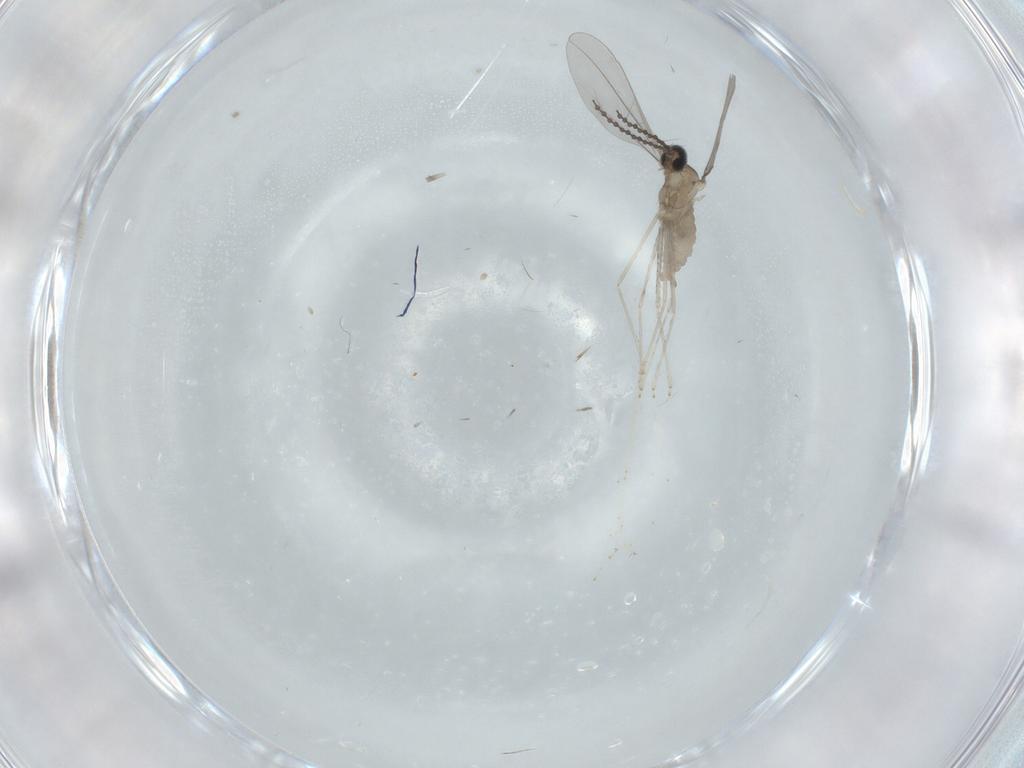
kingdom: Animalia
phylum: Arthropoda
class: Insecta
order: Diptera
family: Cecidomyiidae
